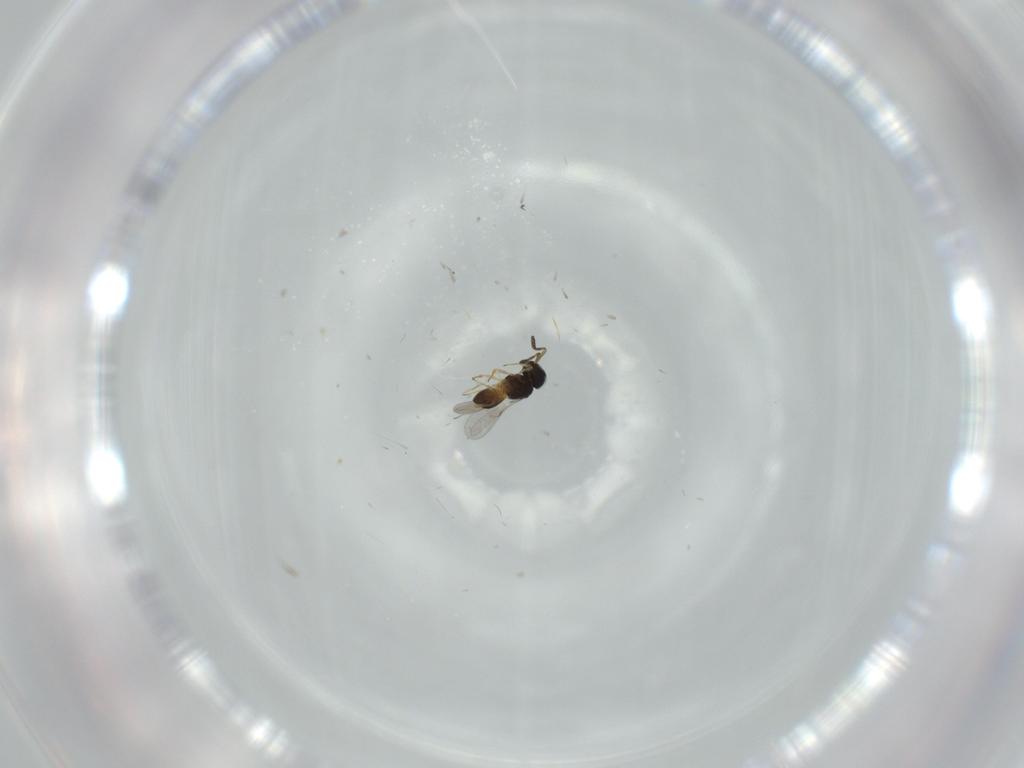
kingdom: Animalia
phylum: Arthropoda
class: Insecta
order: Hymenoptera
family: Scelionidae
